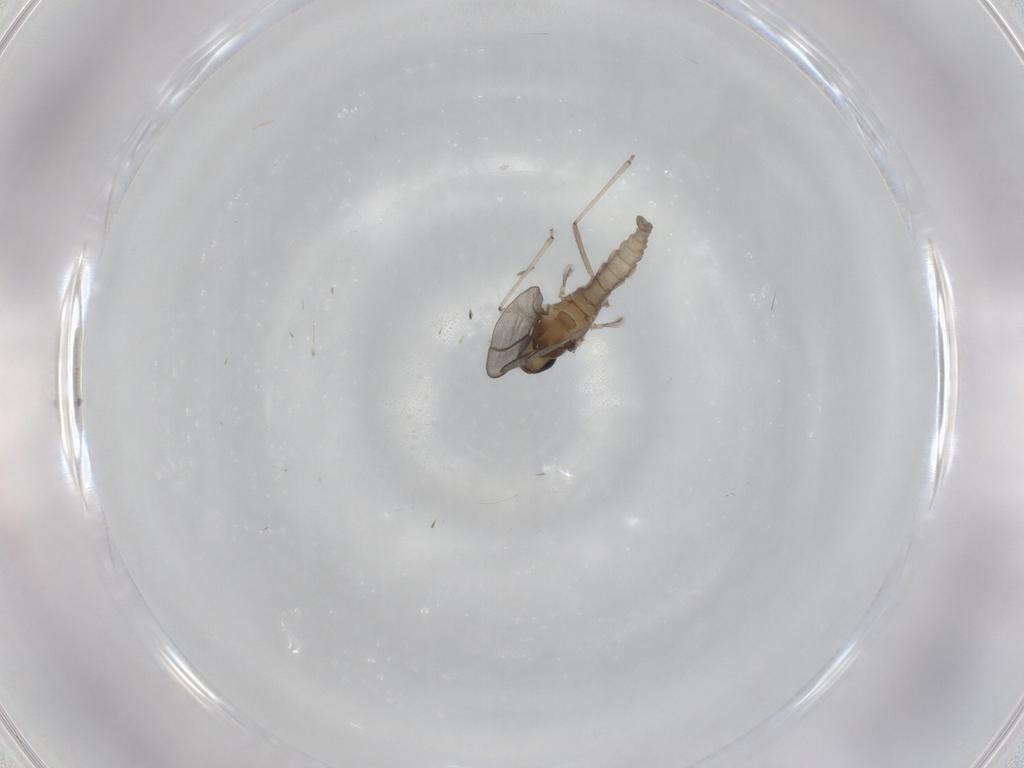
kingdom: Animalia
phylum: Arthropoda
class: Insecta
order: Diptera
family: Cecidomyiidae
